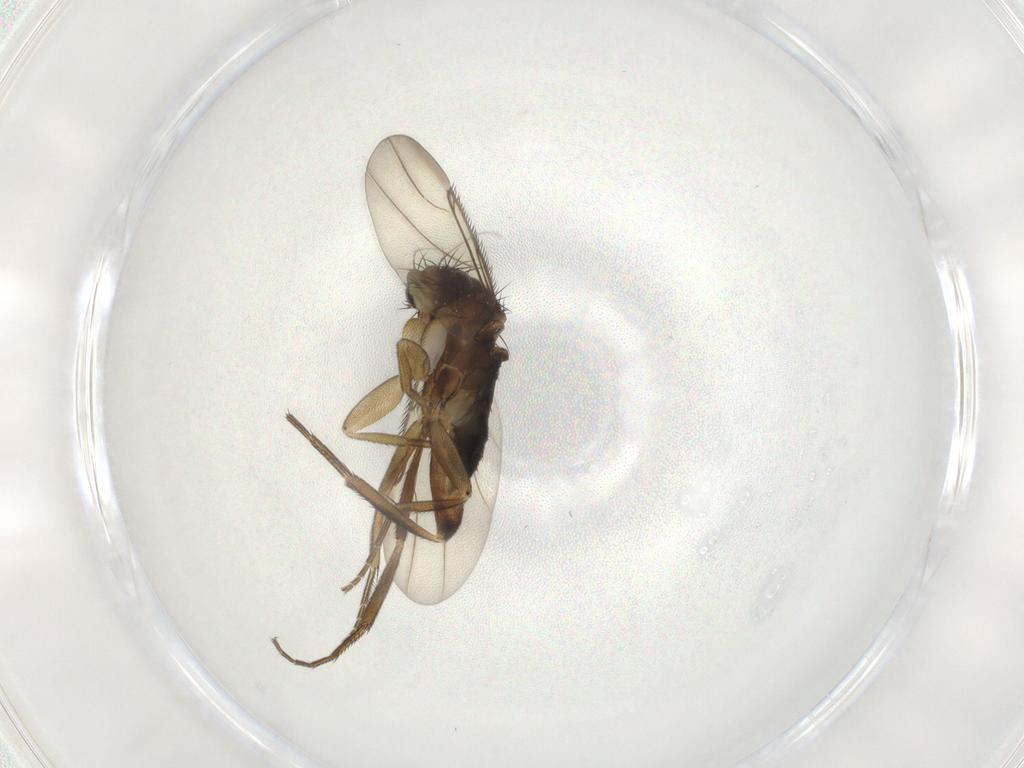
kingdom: Animalia
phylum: Arthropoda
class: Insecta
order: Diptera
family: Phoridae
